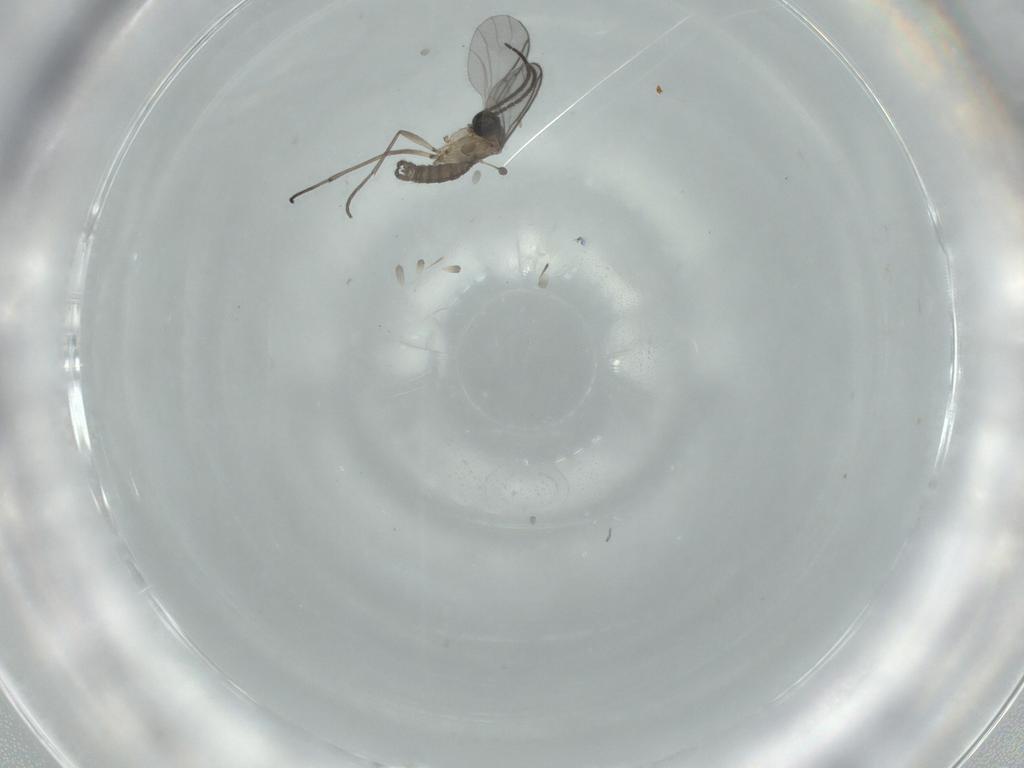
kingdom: Animalia
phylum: Arthropoda
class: Insecta
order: Diptera
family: Sciaridae
